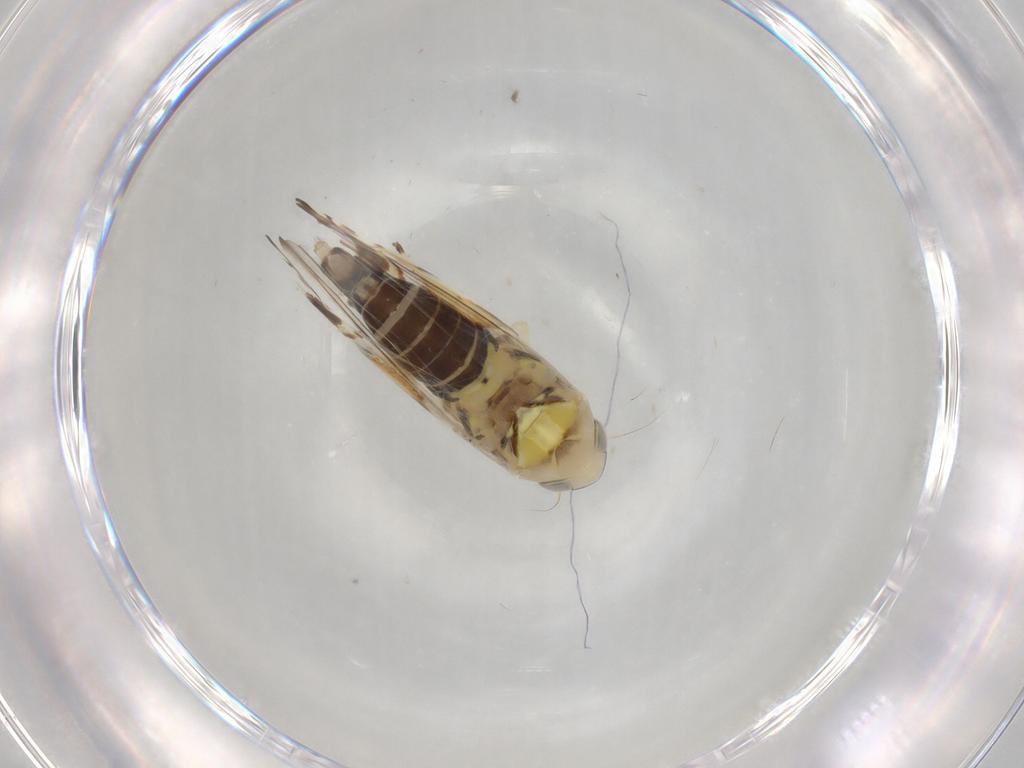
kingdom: Animalia
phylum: Arthropoda
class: Insecta
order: Hemiptera
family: Cicadellidae
